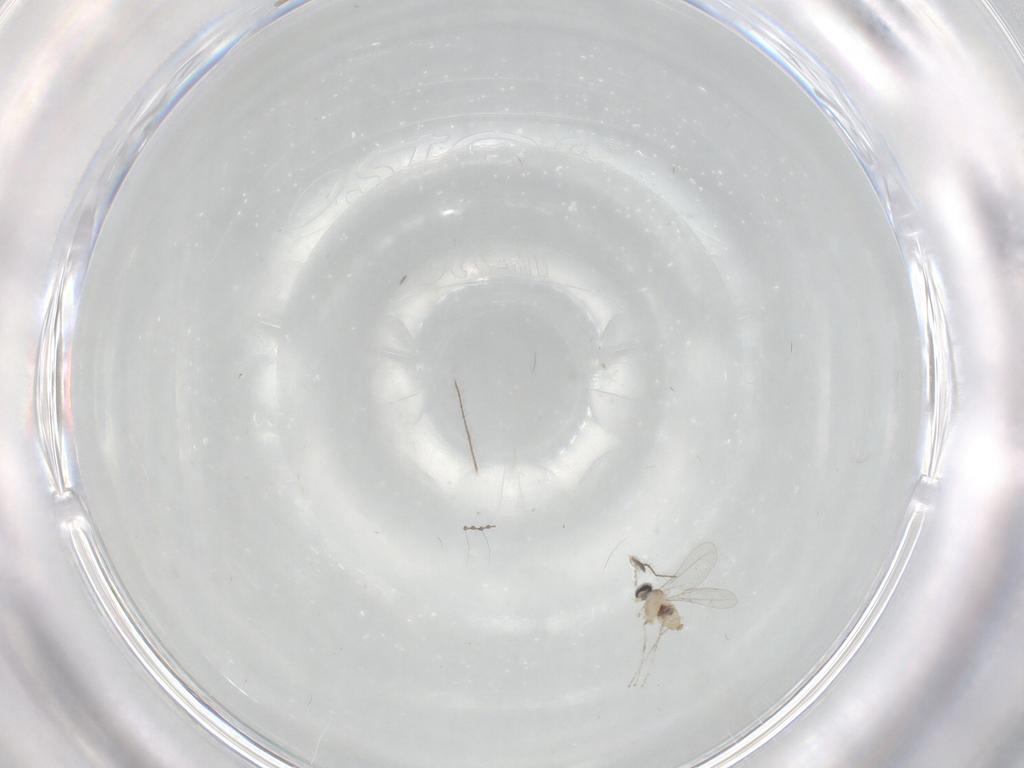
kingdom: Animalia
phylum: Arthropoda
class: Insecta
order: Diptera
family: Cecidomyiidae
